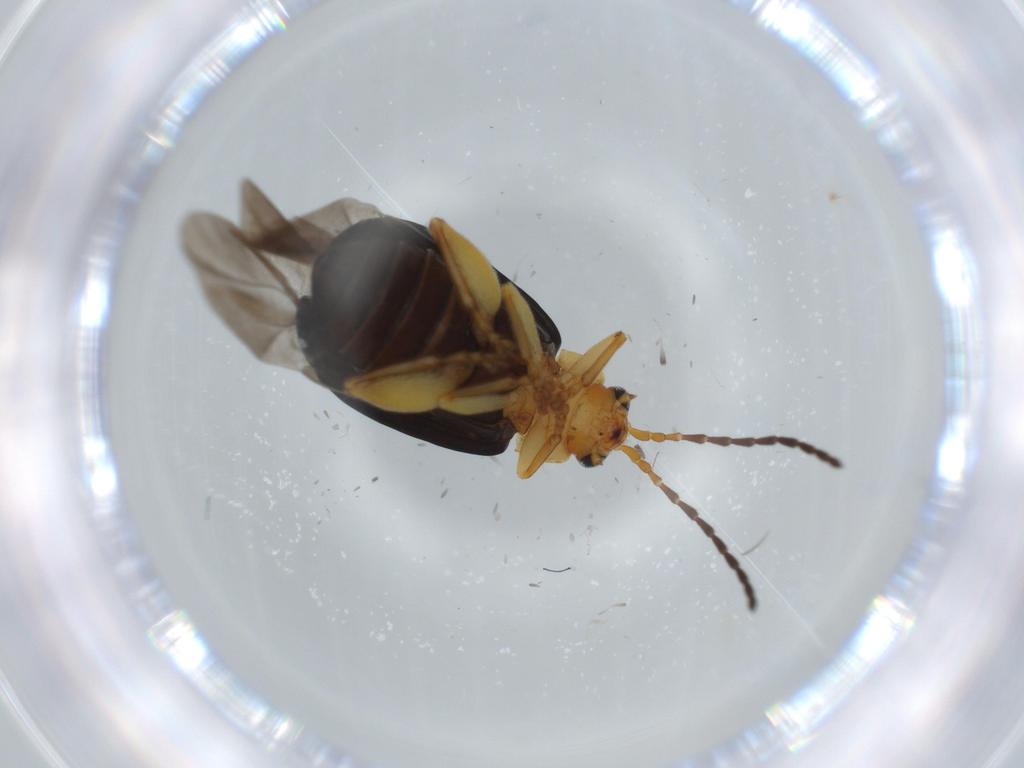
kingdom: Animalia
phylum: Arthropoda
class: Insecta
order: Coleoptera
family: Chrysomelidae
